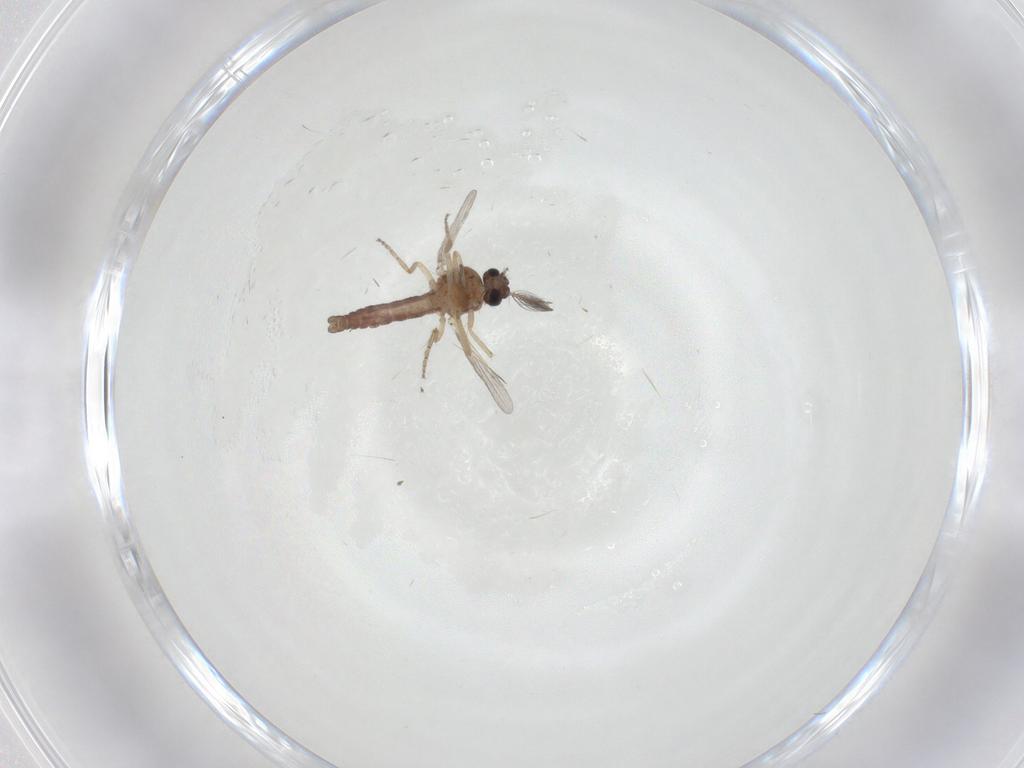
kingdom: Animalia
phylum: Arthropoda
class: Insecta
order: Diptera
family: Ceratopogonidae
